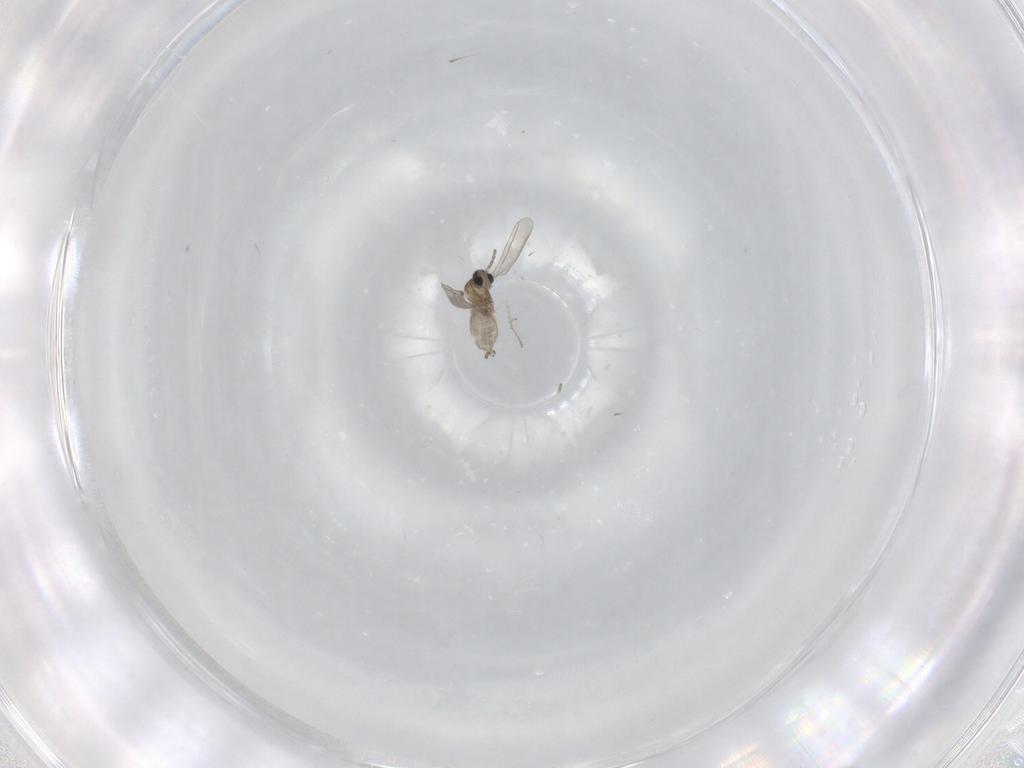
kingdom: Animalia
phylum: Arthropoda
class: Insecta
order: Diptera
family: Cecidomyiidae
